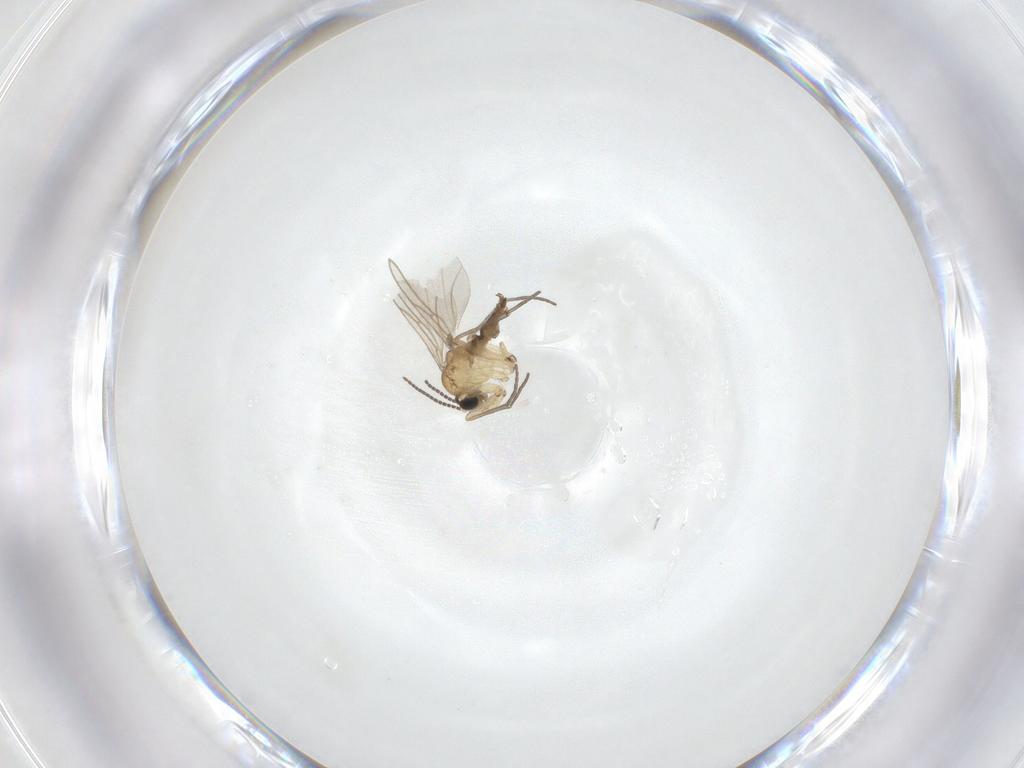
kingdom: Animalia
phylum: Arthropoda
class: Insecta
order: Diptera
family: Sciaridae
